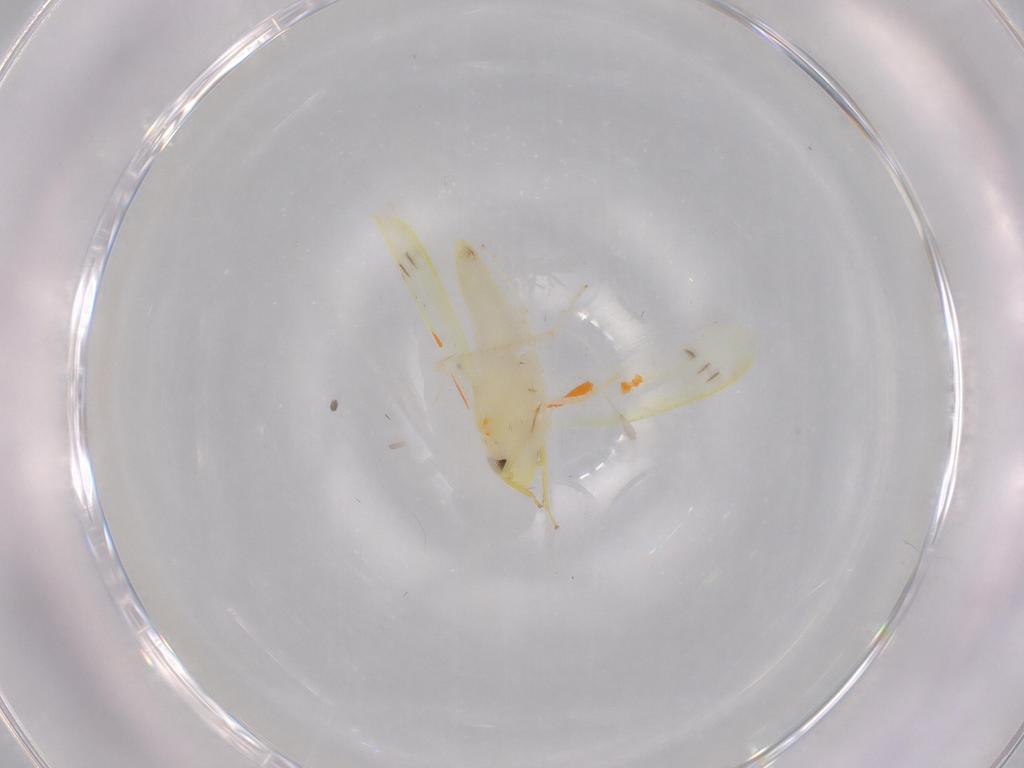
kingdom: Animalia
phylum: Arthropoda
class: Insecta
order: Hemiptera
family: Cicadellidae
